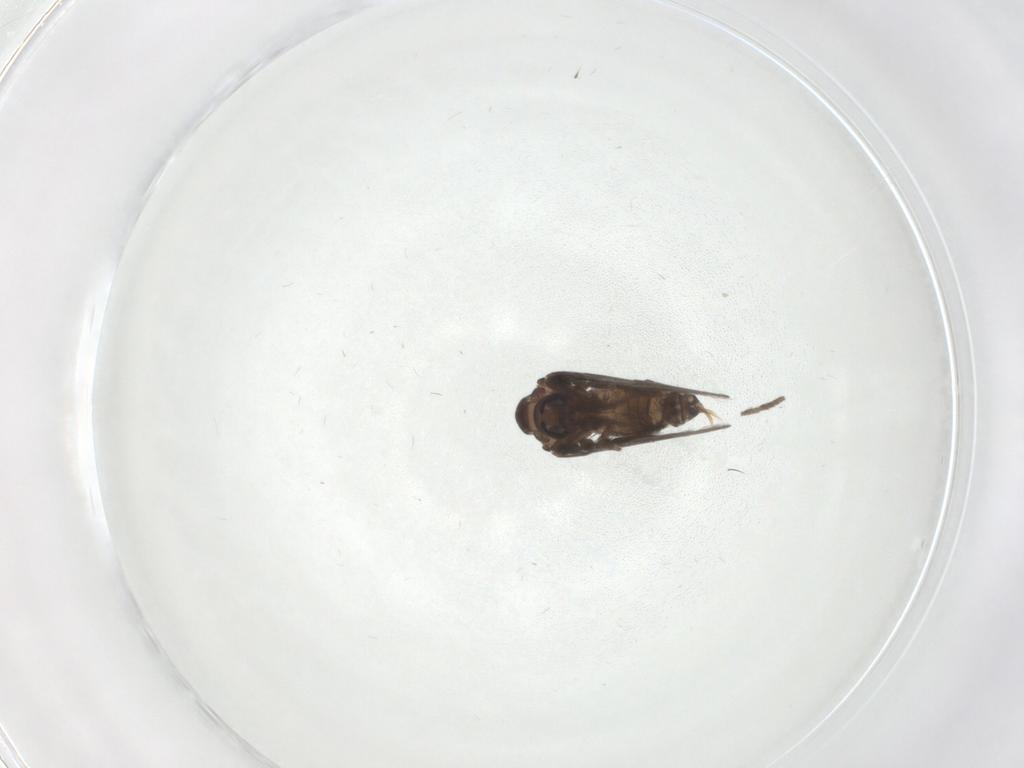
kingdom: Animalia
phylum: Arthropoda
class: Insecta
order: Diptera
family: Psychodidae
